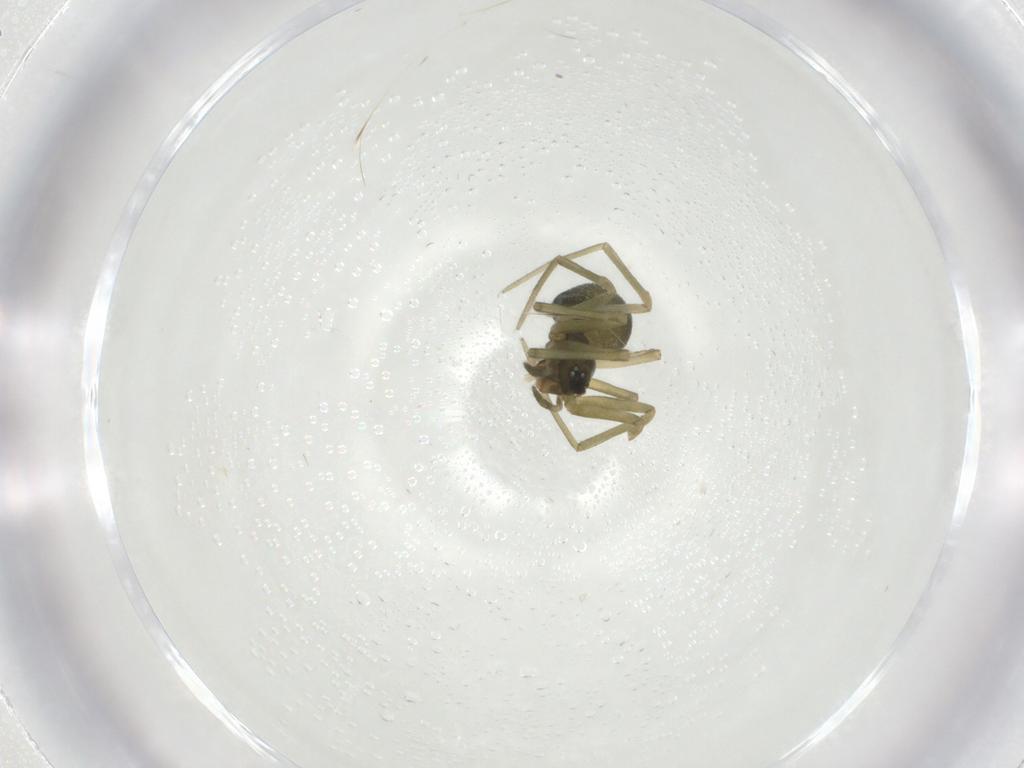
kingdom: Animalia
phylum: Arthropoda
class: Arachnida
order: Araneae
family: Linyphiidae
